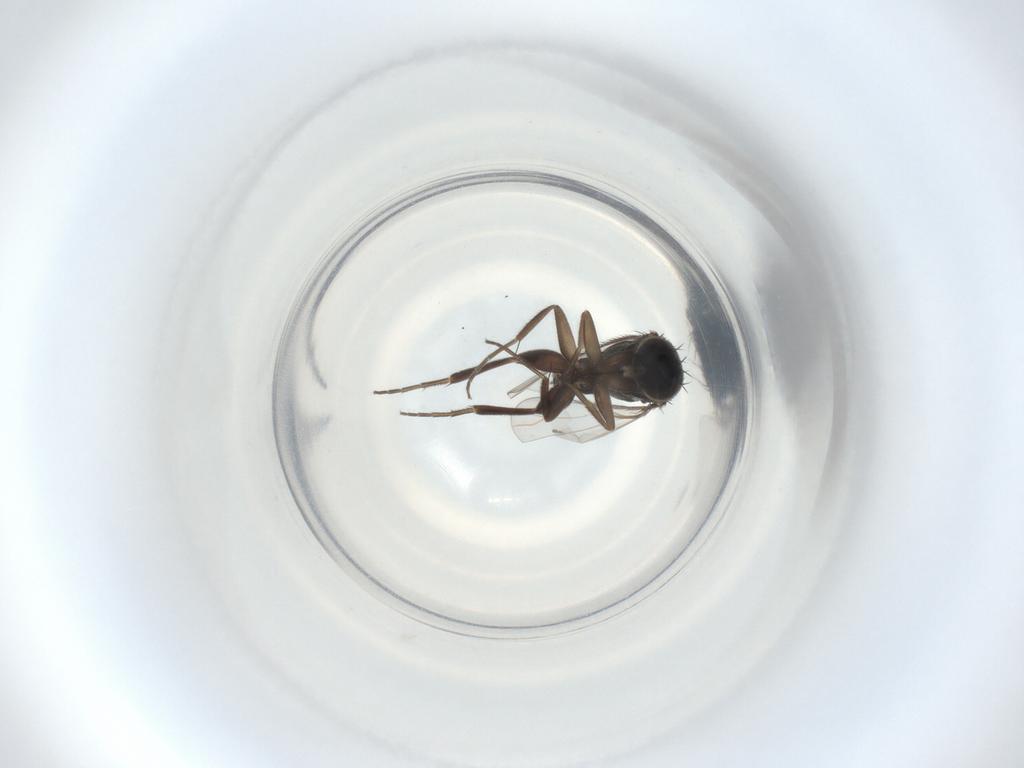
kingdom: Animalia
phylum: Arthropoda
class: Insecta
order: Diptera
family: Phoridae
